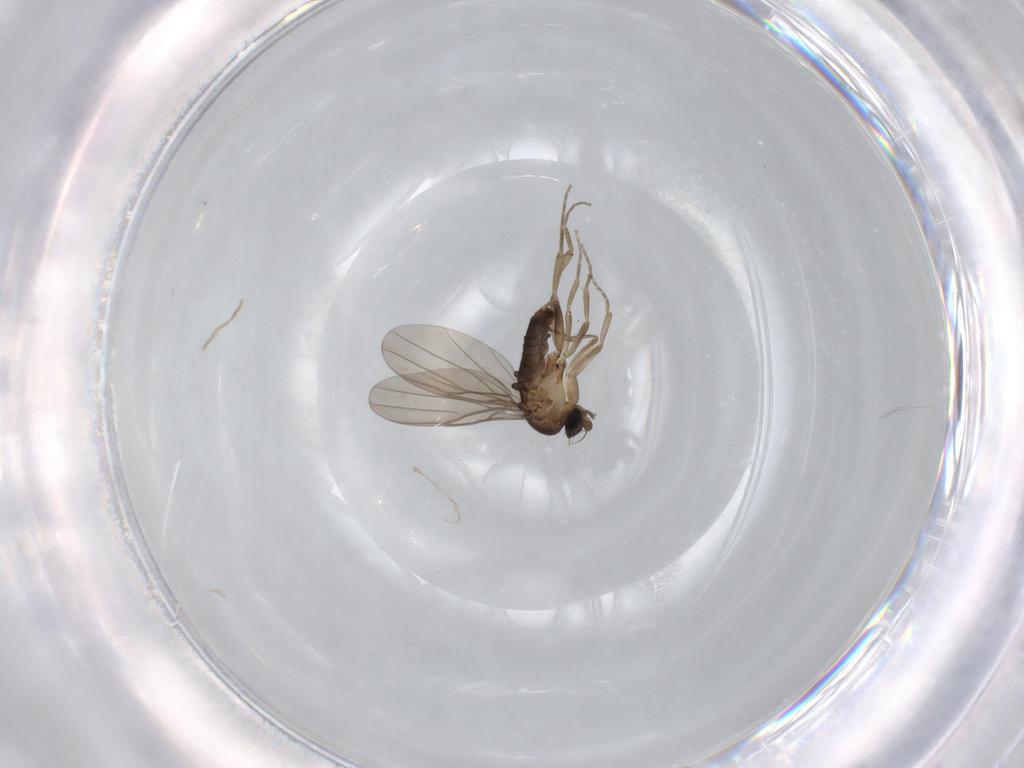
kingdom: Animalia
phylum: Arthropoda
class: Insecta
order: Diptera
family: Phoridae
